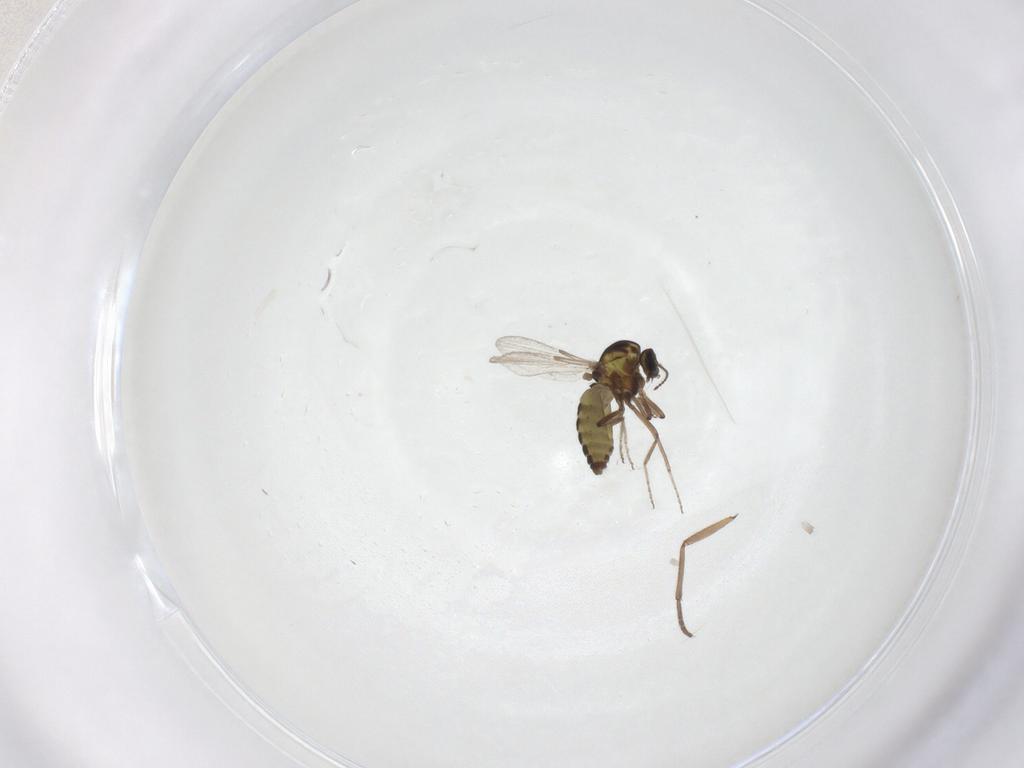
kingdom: Animalia
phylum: Arthropoda
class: Insecta
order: Diptera
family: Ceratopogonidae
